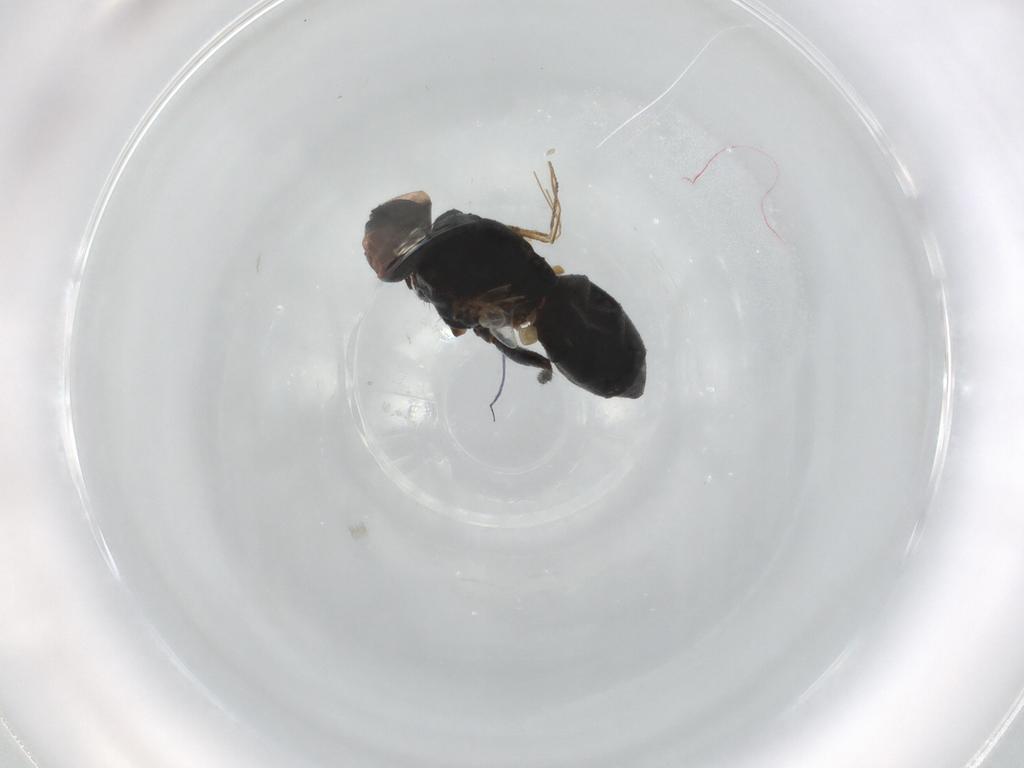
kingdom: Animalia
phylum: Arthropoda
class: Insecta
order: Diptera
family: Muscidae
